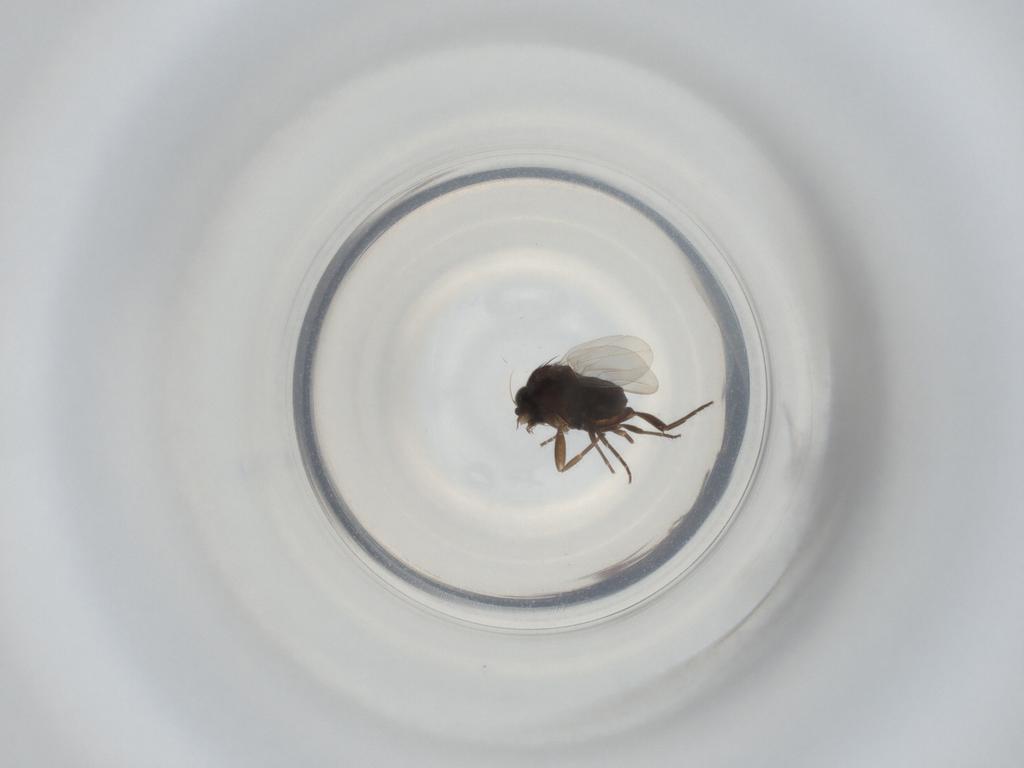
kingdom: Animalia
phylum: Arthropoda
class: Insecta
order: Diptera
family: Phoridae
